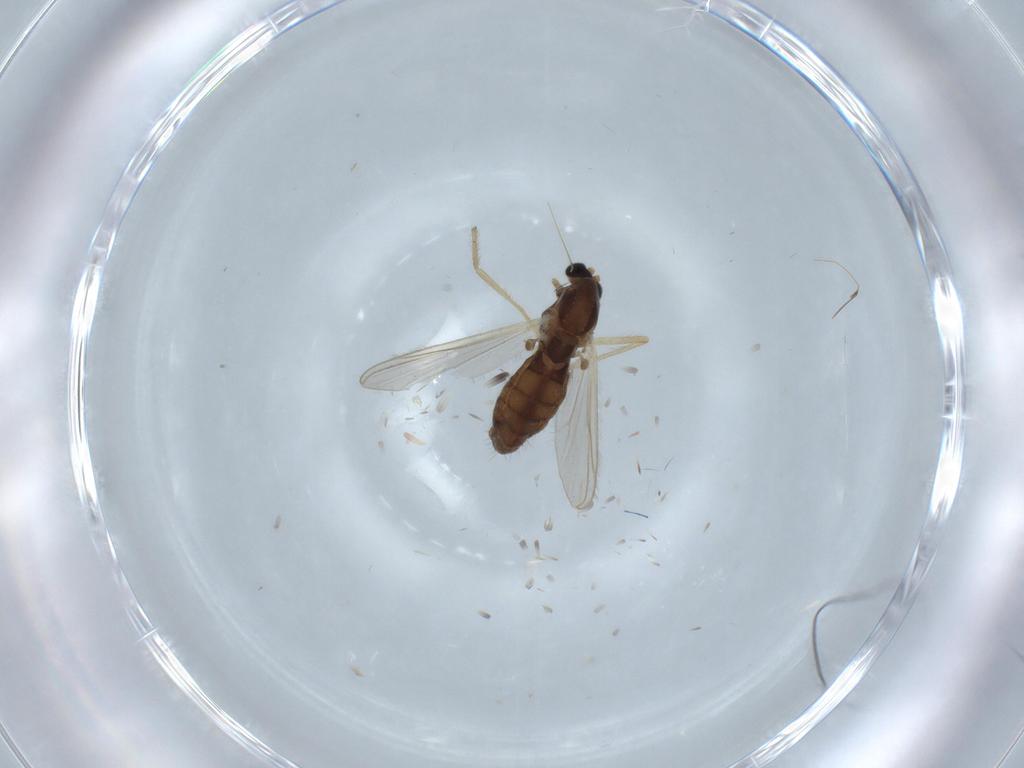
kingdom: Animalia
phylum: Arthropoda
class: Insecta
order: Diptera
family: Chironomidae
